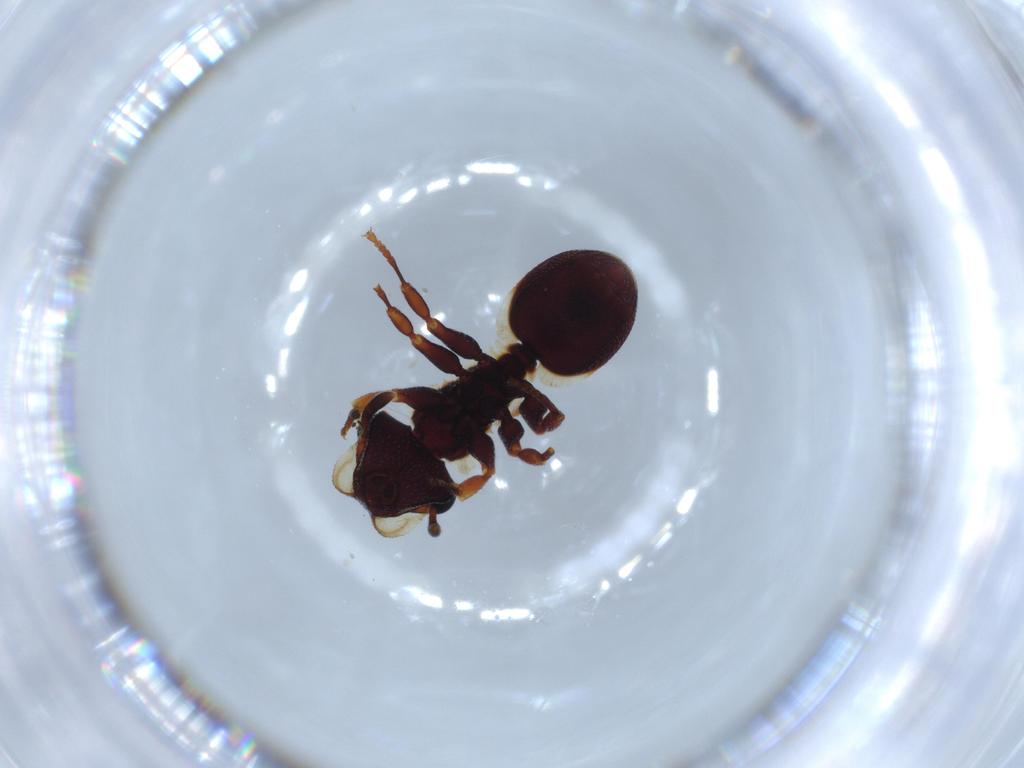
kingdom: Animalia
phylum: Arthropoda
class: Insecta
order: Hymenoptera
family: Formicidae
